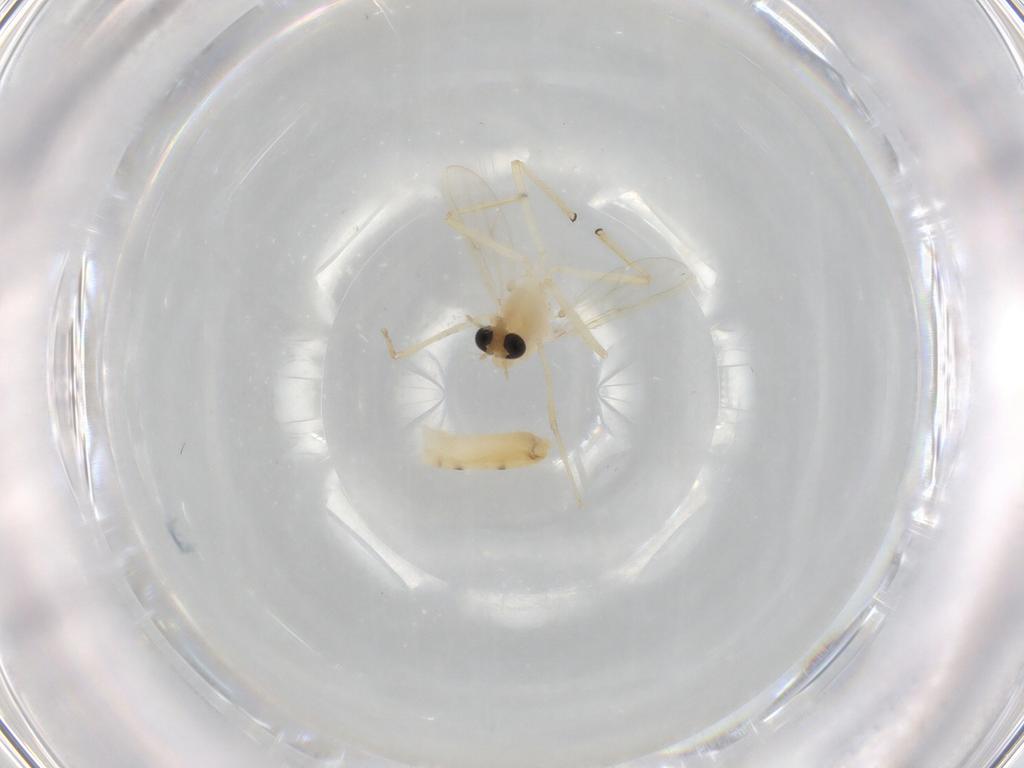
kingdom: Animalia
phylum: Arthropoda
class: Insecta
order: Diptera
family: Chironomidae
